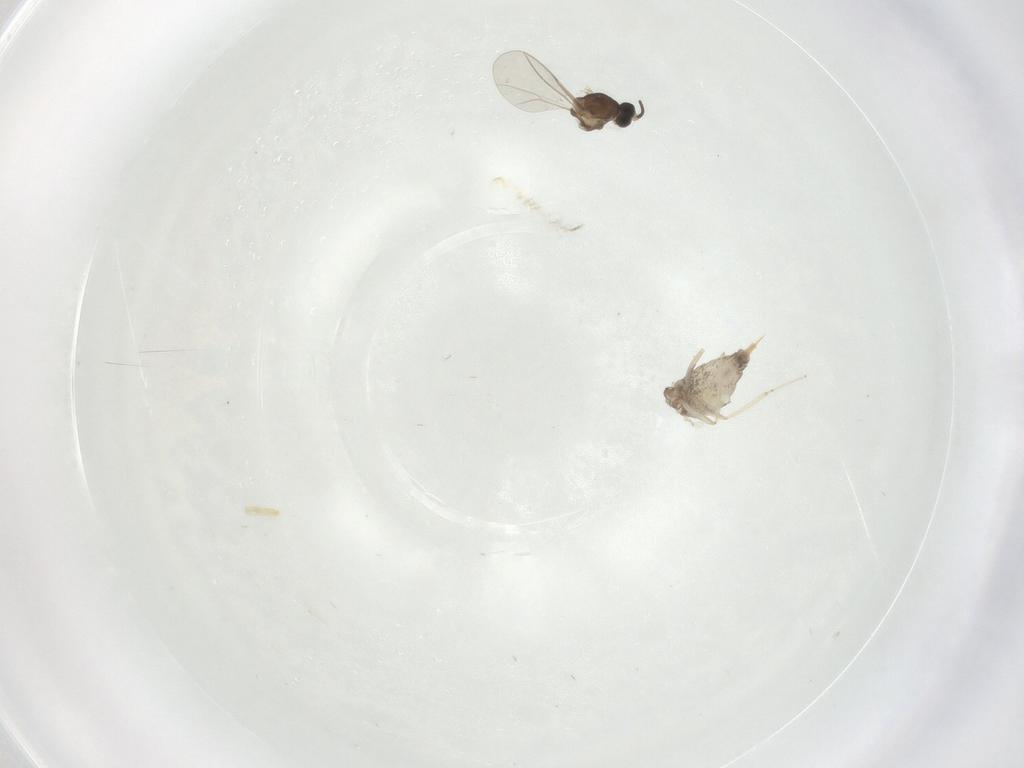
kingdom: Animalia
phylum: Arthropoda
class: Insecta
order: Diptera
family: Cecidomyiidae
